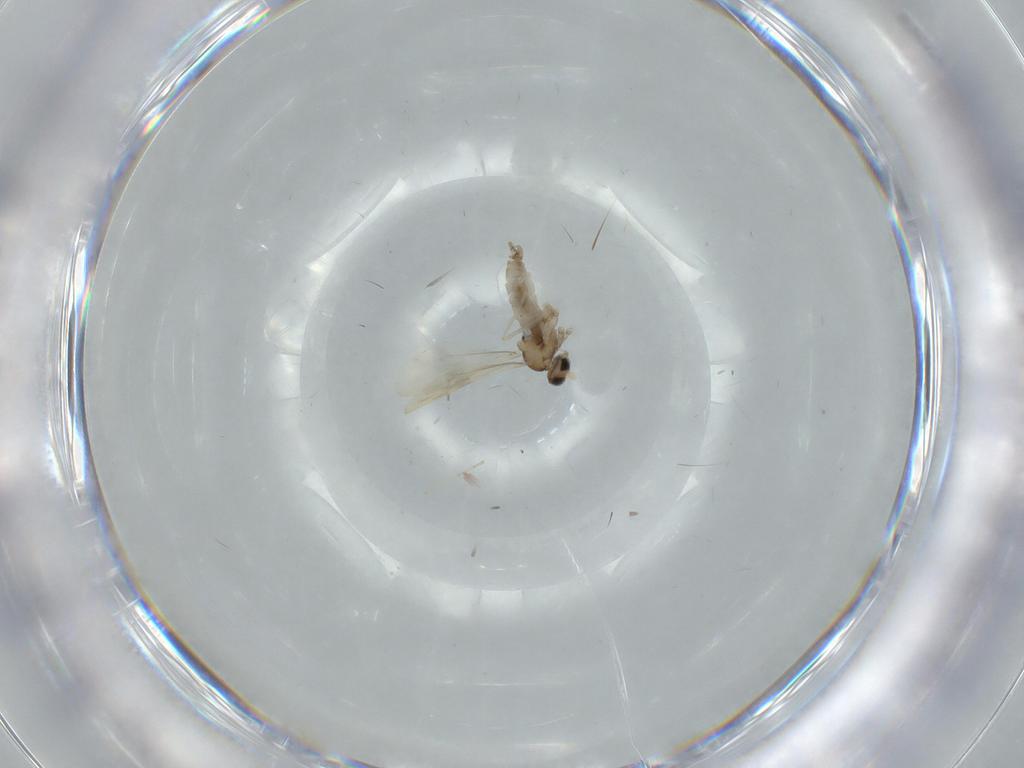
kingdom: Animalia
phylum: Arthropoda
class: Insecta
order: Diptera
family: Cecidomyiidae
